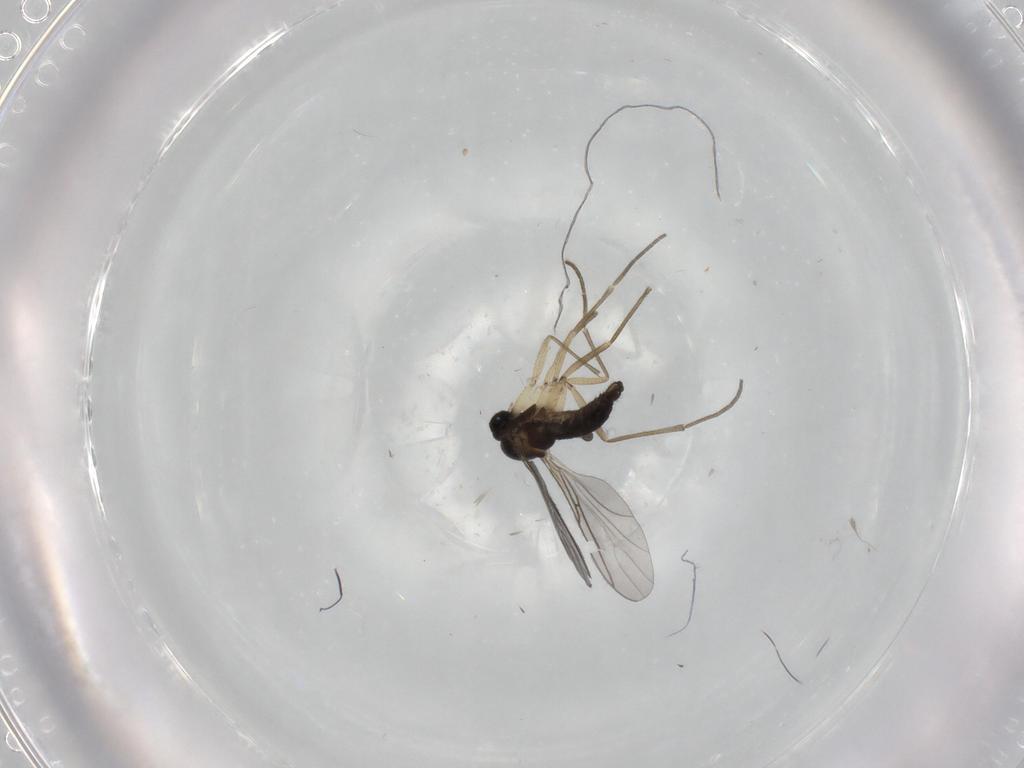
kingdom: Animalia
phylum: Arthropoda
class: Insecta
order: Diptera
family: Sciaridae
